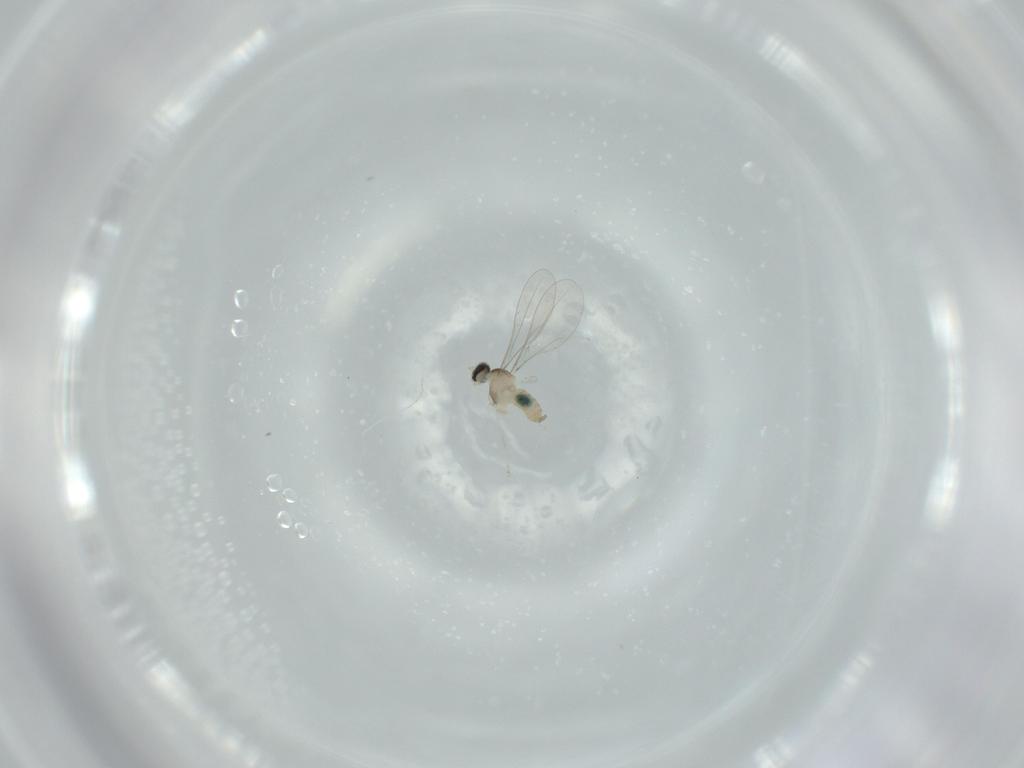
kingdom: Animalia
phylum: Arthropoda
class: Insecta
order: Diptera
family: Cecidomyiidae
